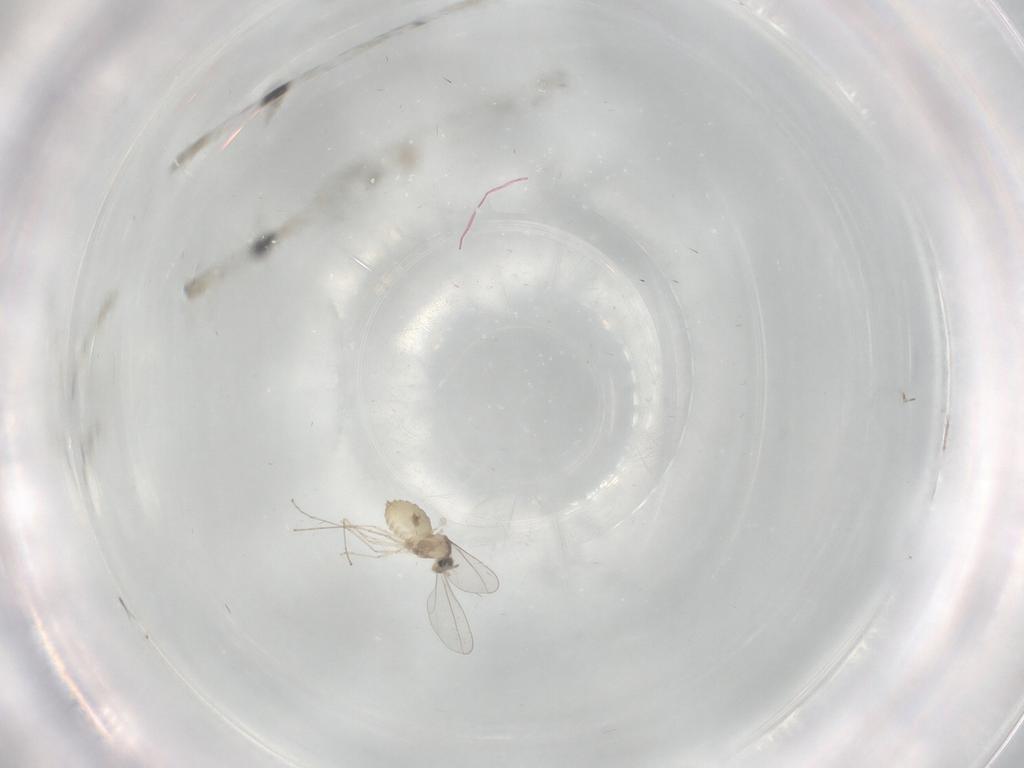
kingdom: Animalia
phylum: Arthropoda
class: Insecta
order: Diptera
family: Cecidomyiidae
